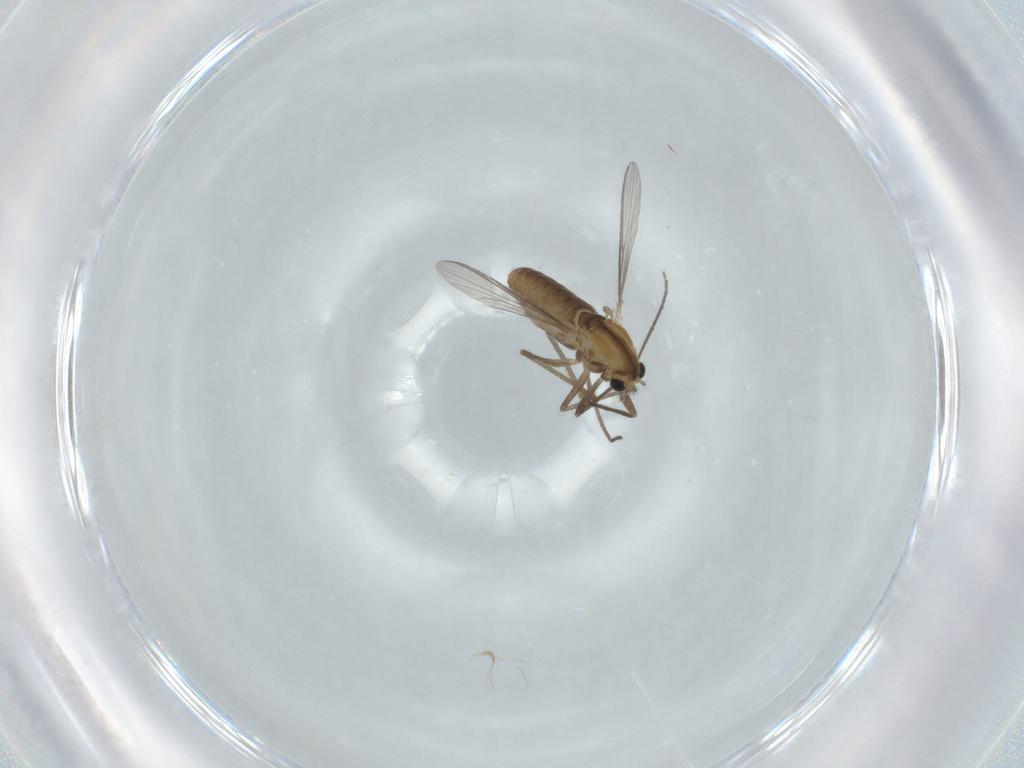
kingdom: Animalia
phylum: Arthropoda
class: Insecta
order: Diptera
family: Chironomidae
